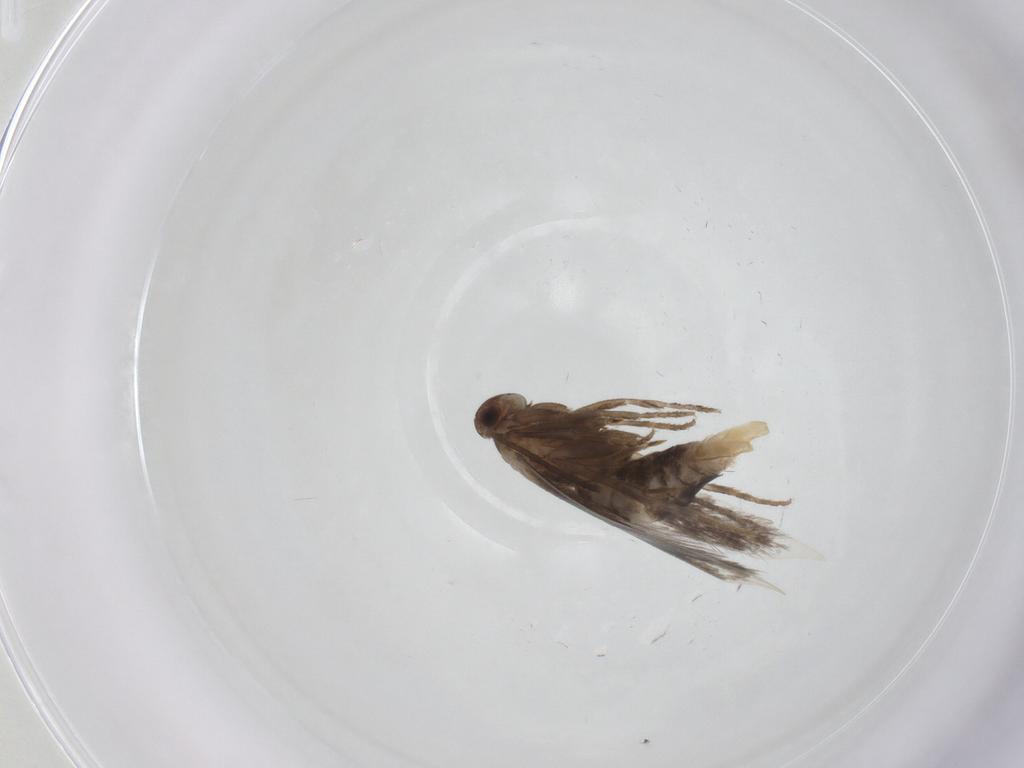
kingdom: Animalia
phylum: Arthropoda
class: Insecta
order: Lepidoptera
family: Elachistidae
